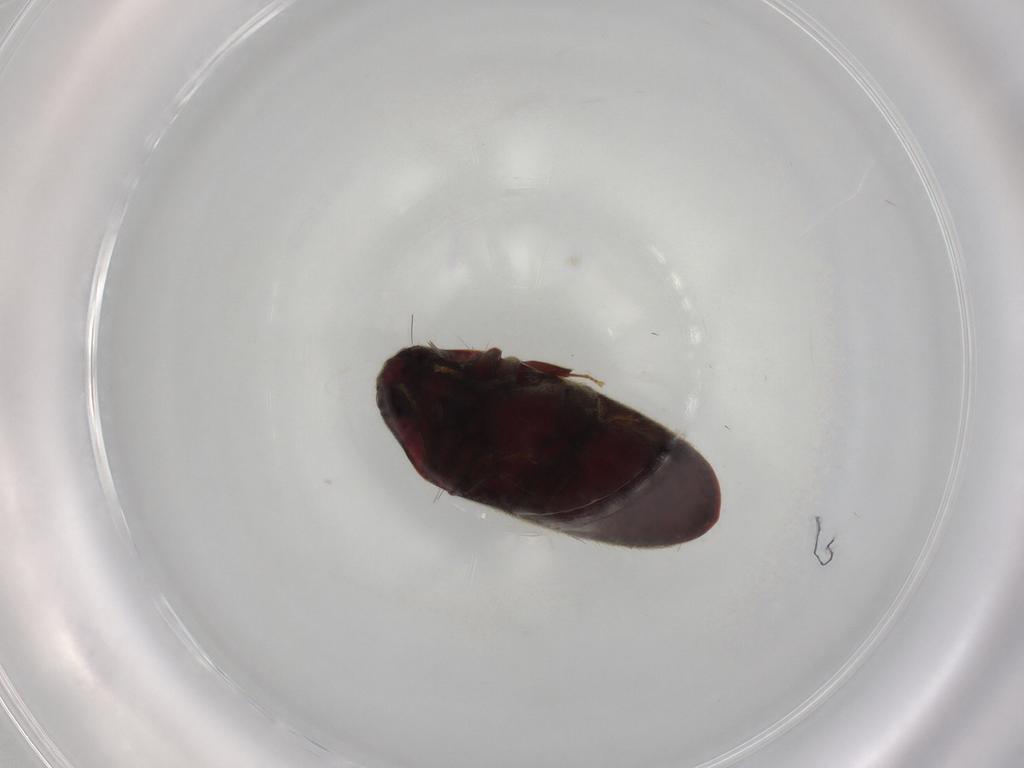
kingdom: Animalia
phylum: Arthropoda
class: Insecta
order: Coleoptera
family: Throscidae
